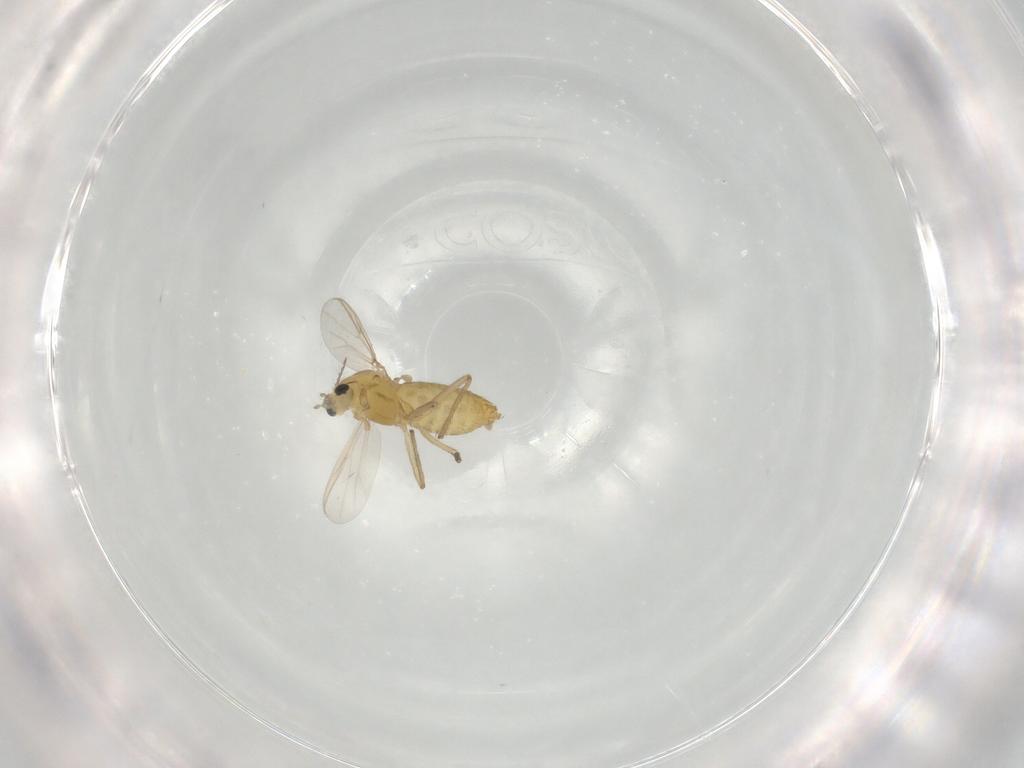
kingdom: Animalia
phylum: Arthropoda
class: Insecta
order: Diptera
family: Chironomidae
